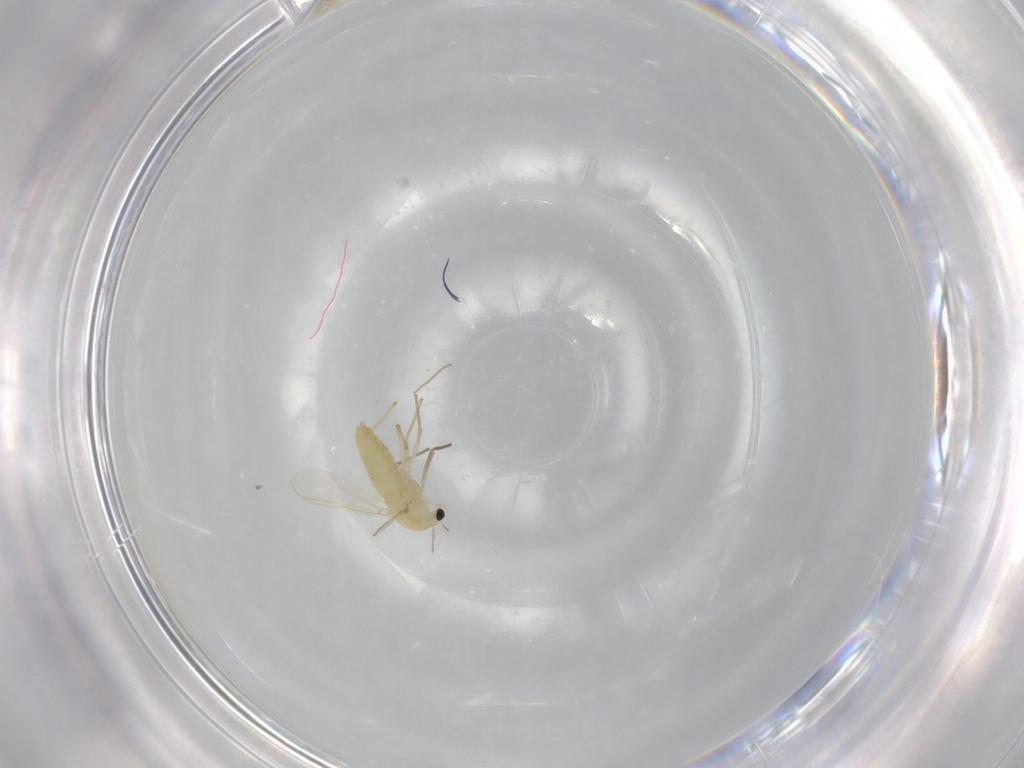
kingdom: Animalia
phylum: Arthropoda
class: Insecta
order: Diptera
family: Chironomidae
